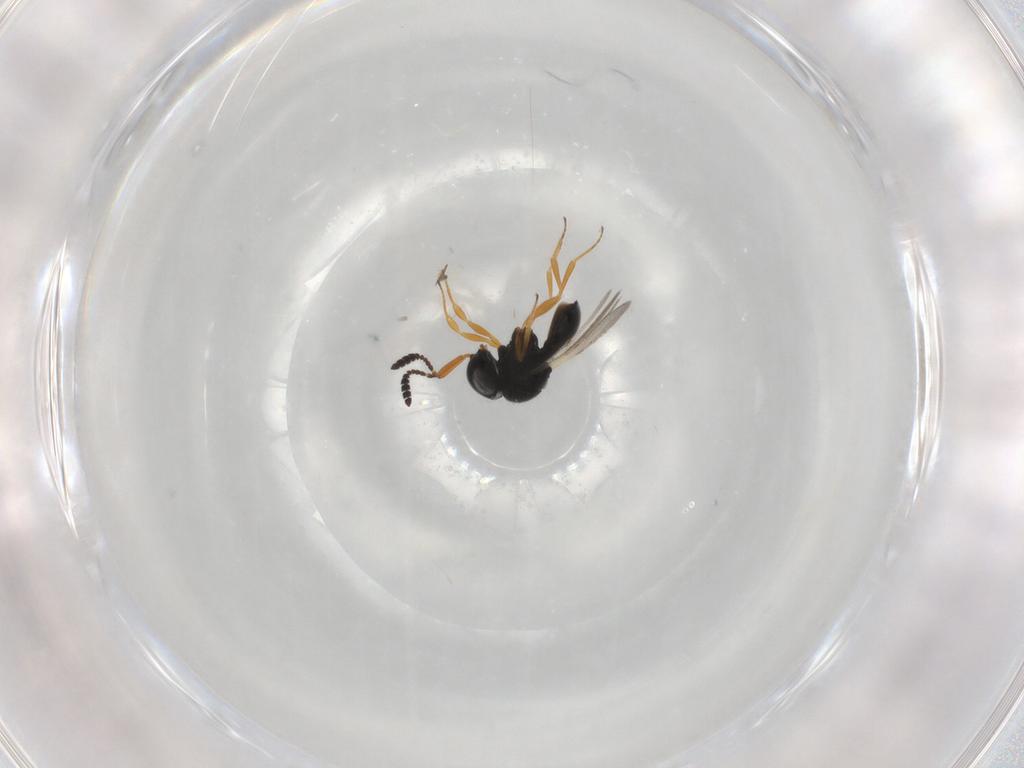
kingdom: Animalia
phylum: Arthropoda
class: Insecta
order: Hymenoptera
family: Scelionidae
